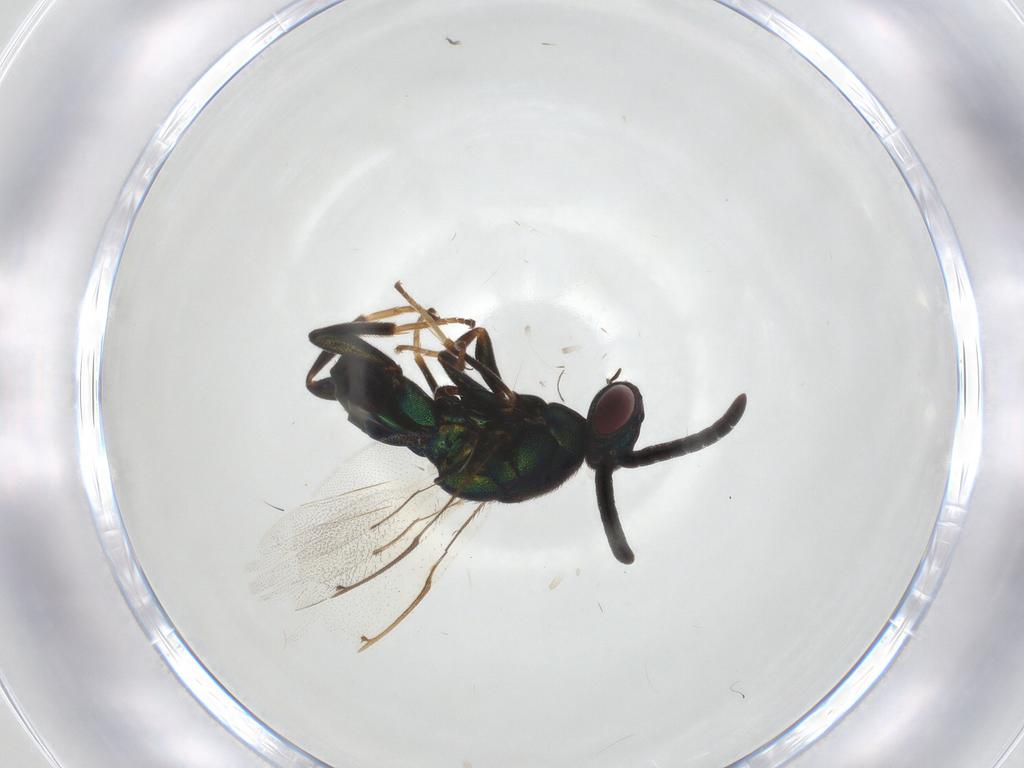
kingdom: Animalia
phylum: Arthropoda
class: Insecta
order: Hymenoptera
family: Torymidae
